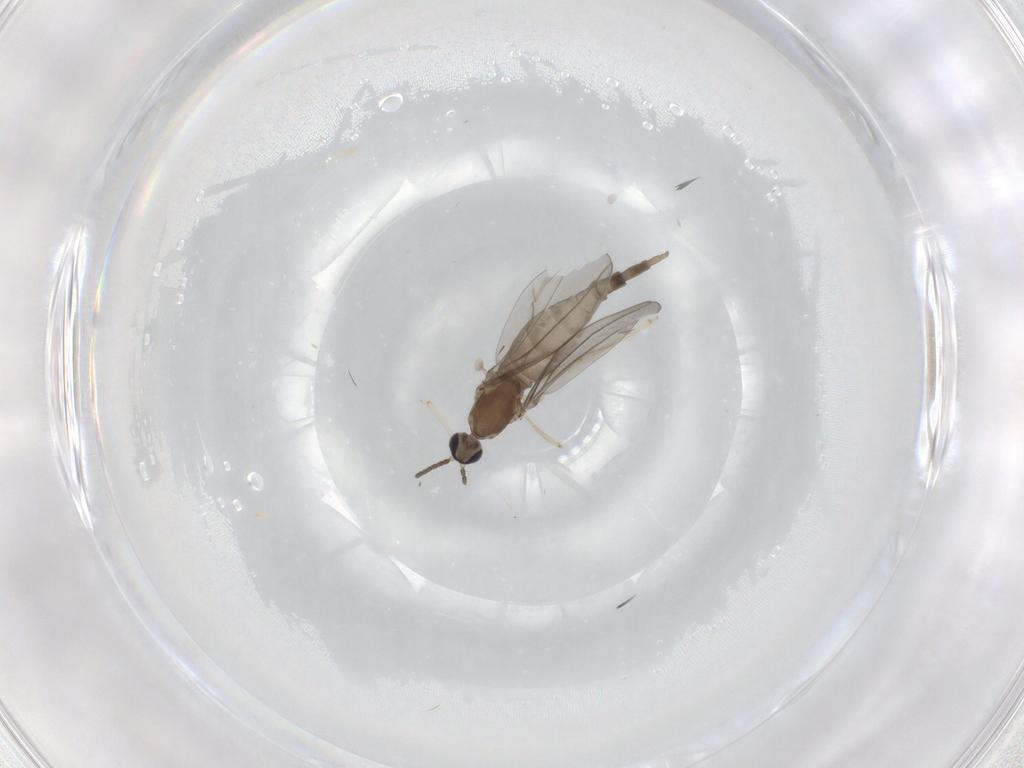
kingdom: Animalia
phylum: Arthropoda
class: Insecta
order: Diptera
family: Cecidomyiidae
